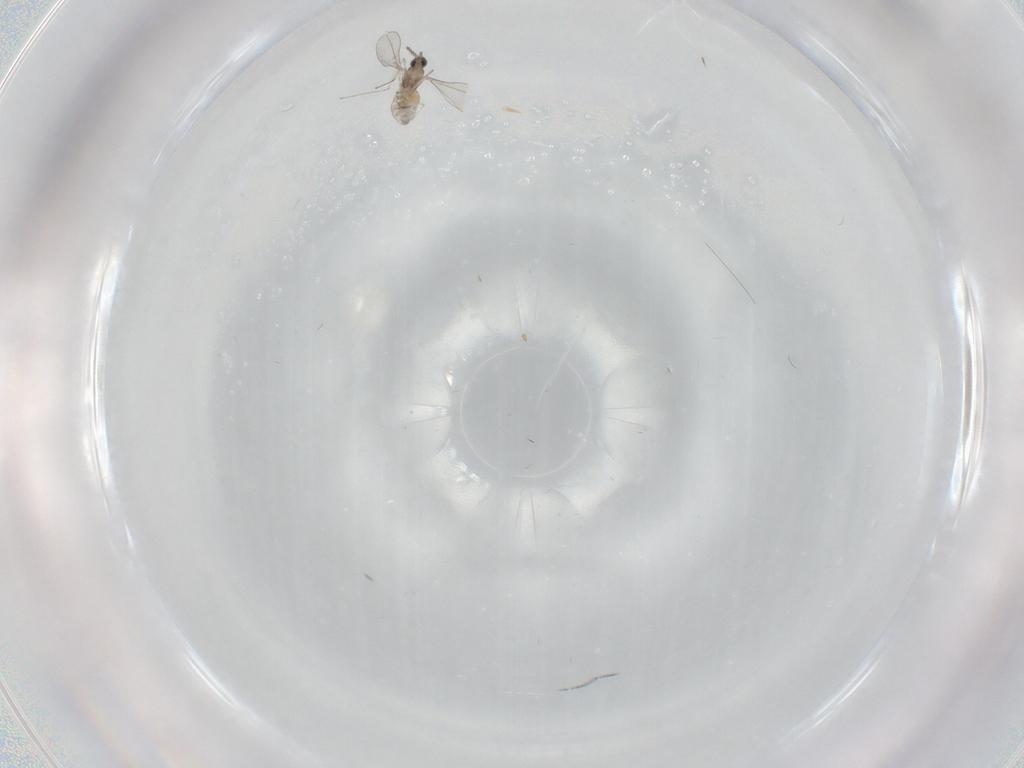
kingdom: Animalia
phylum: Arthropoda
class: Insecta
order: Diptera
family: Cecidomyiidae
